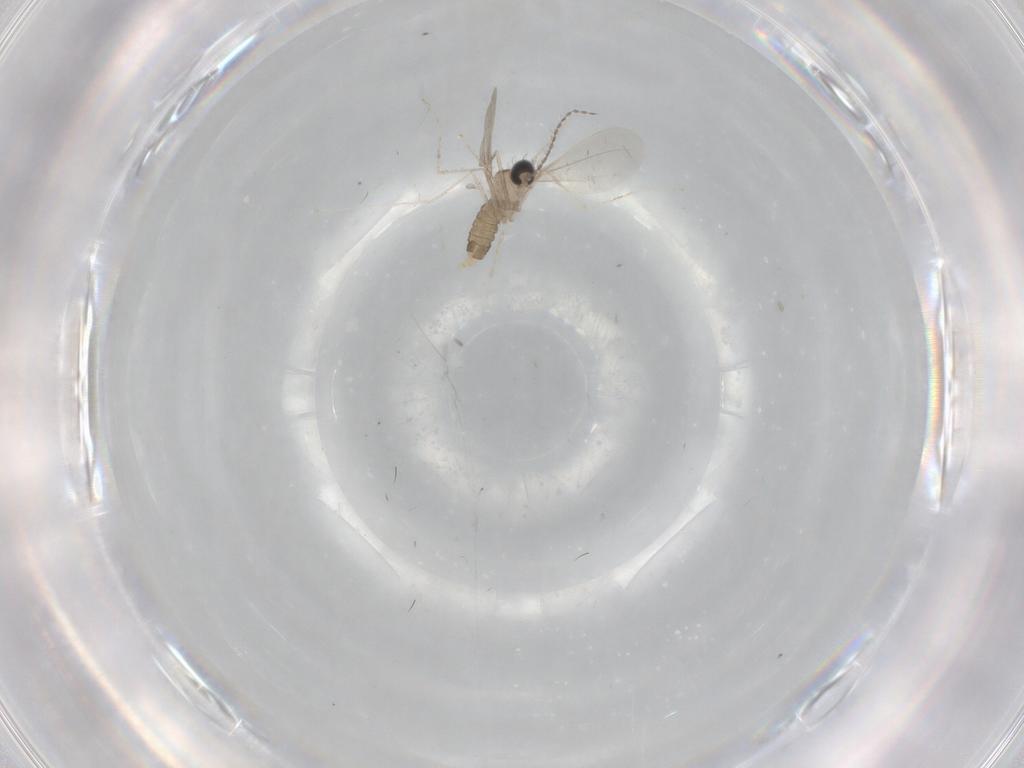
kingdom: Animalia
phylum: Arthropoda
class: Insecta
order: Diptera
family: Cecidomyiidae
